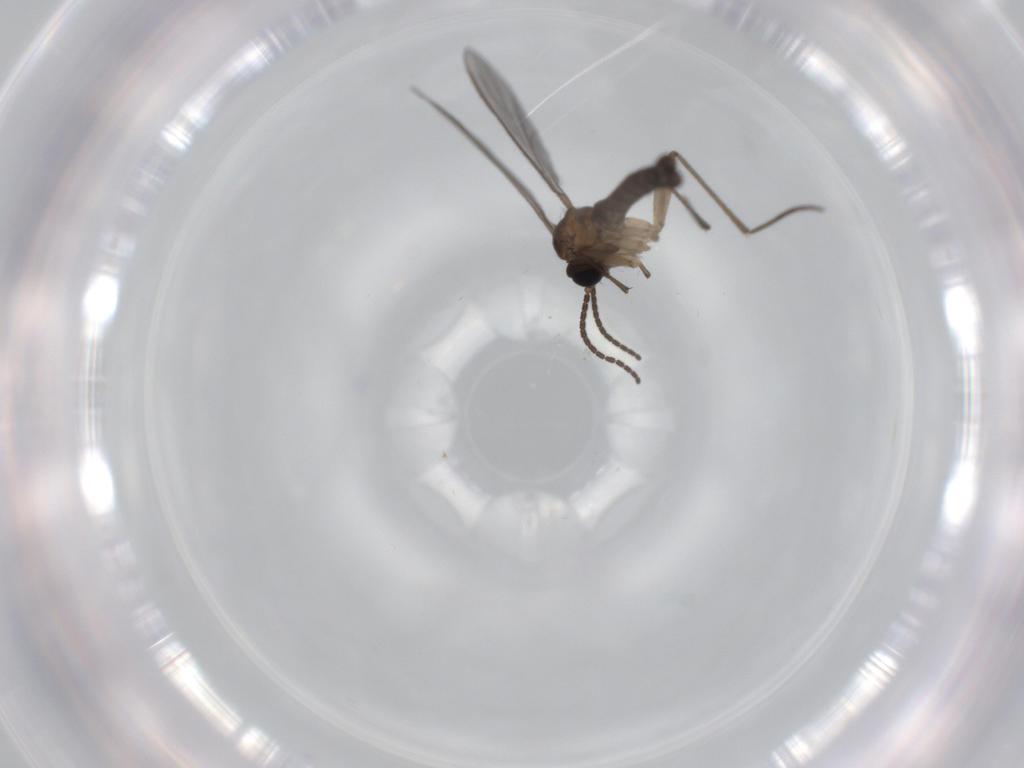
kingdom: Animalia
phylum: Arthropoda
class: Insecta
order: Diptera
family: Sciaridae
